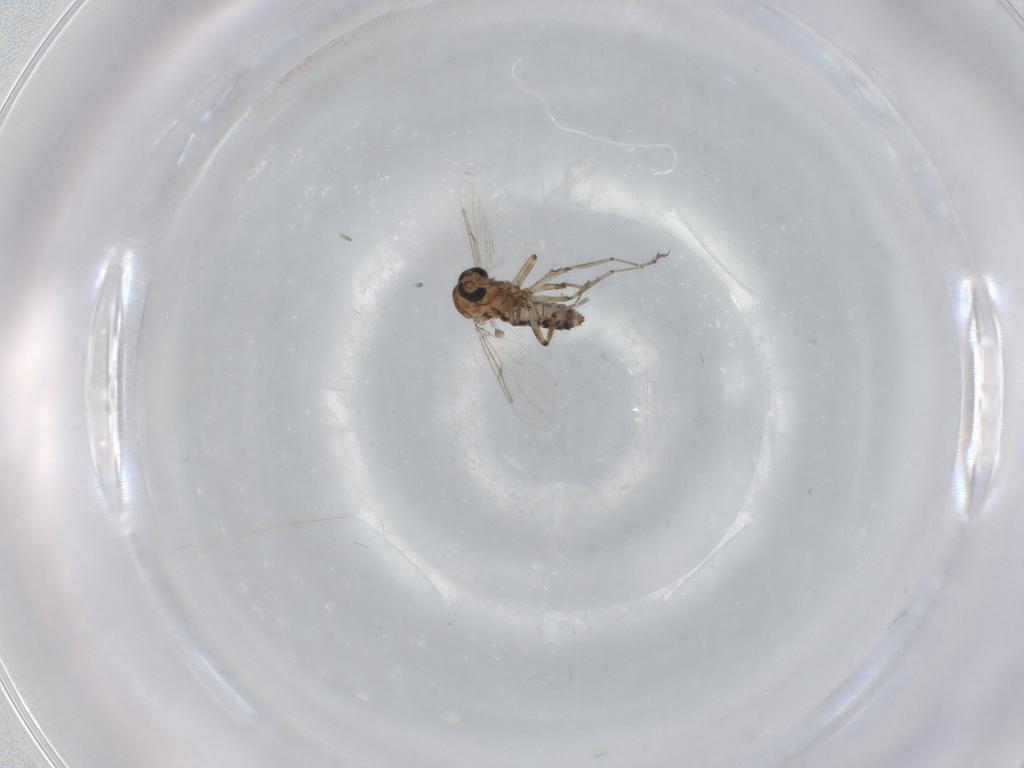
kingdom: Animalia
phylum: Arthropoda
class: Insecta
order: Diptera
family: Ceratopogonidae
